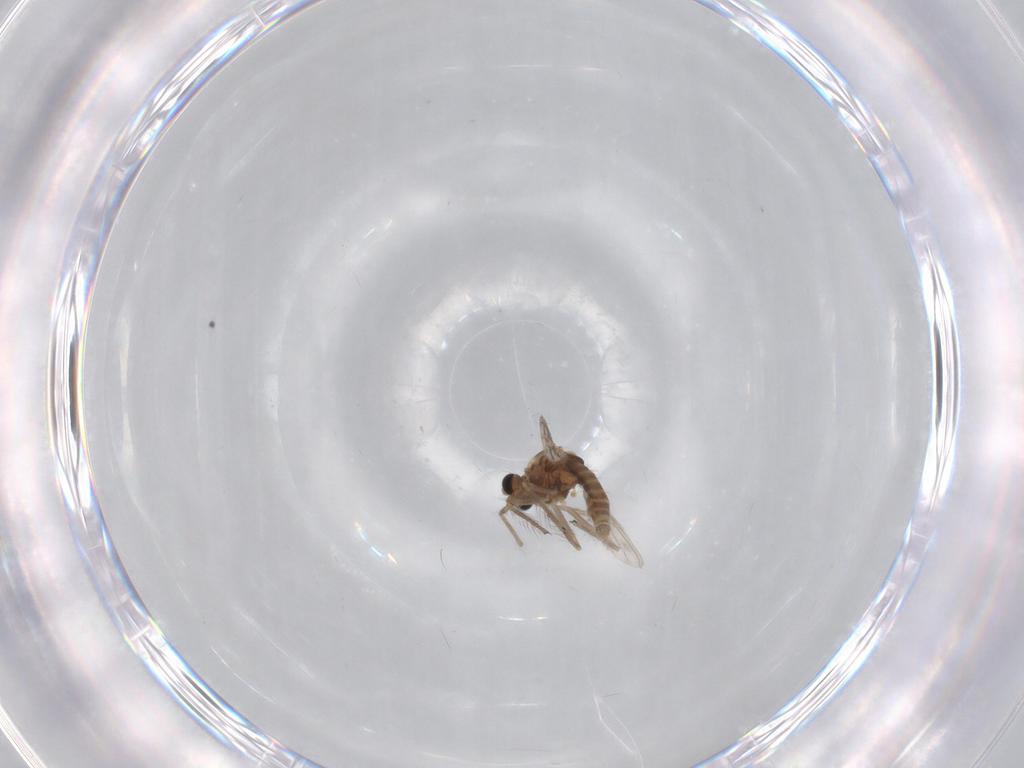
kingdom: Animalia
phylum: Arthropoda
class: Insecta
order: Diptera
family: Chironomidae
